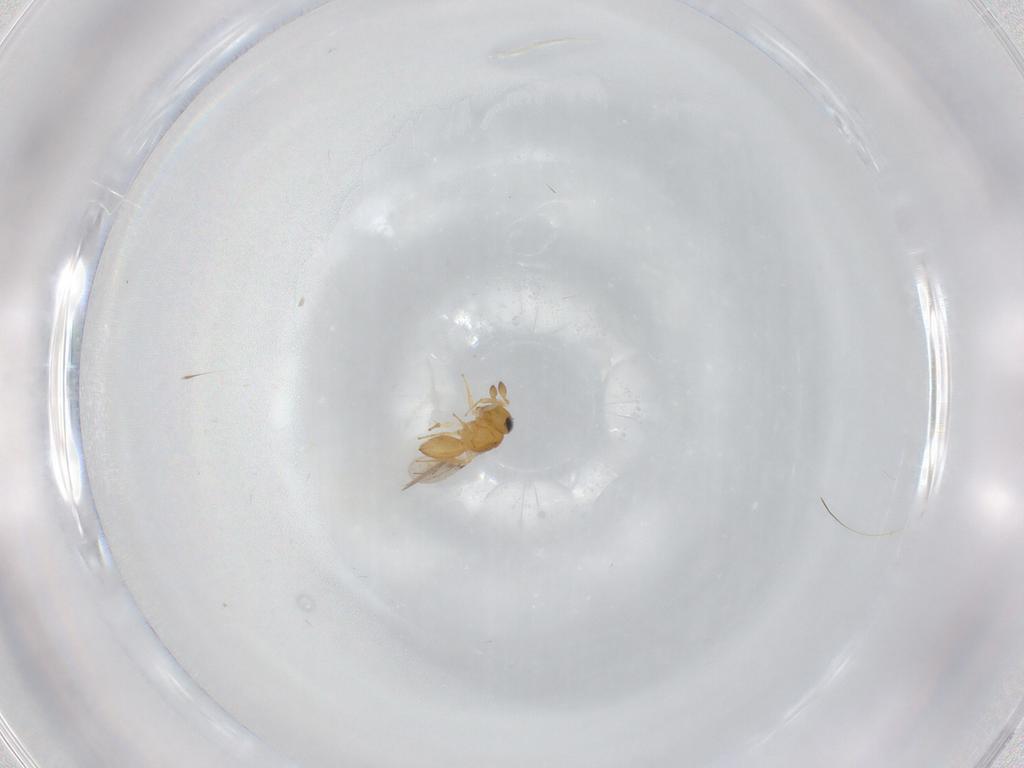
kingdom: Animalia
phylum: Arthropoda
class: Insecta
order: Hymenoptera
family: Scelionidae
